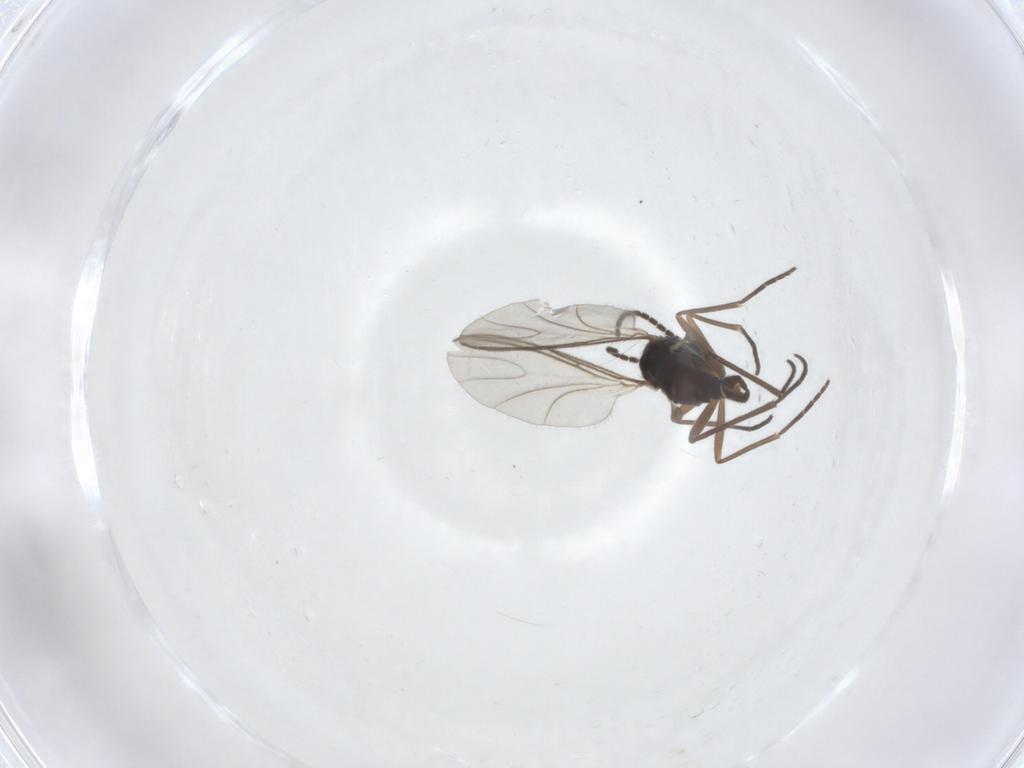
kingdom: Animalia
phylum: Arthropoda
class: Insecta
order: Diptera
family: Sciaridae
